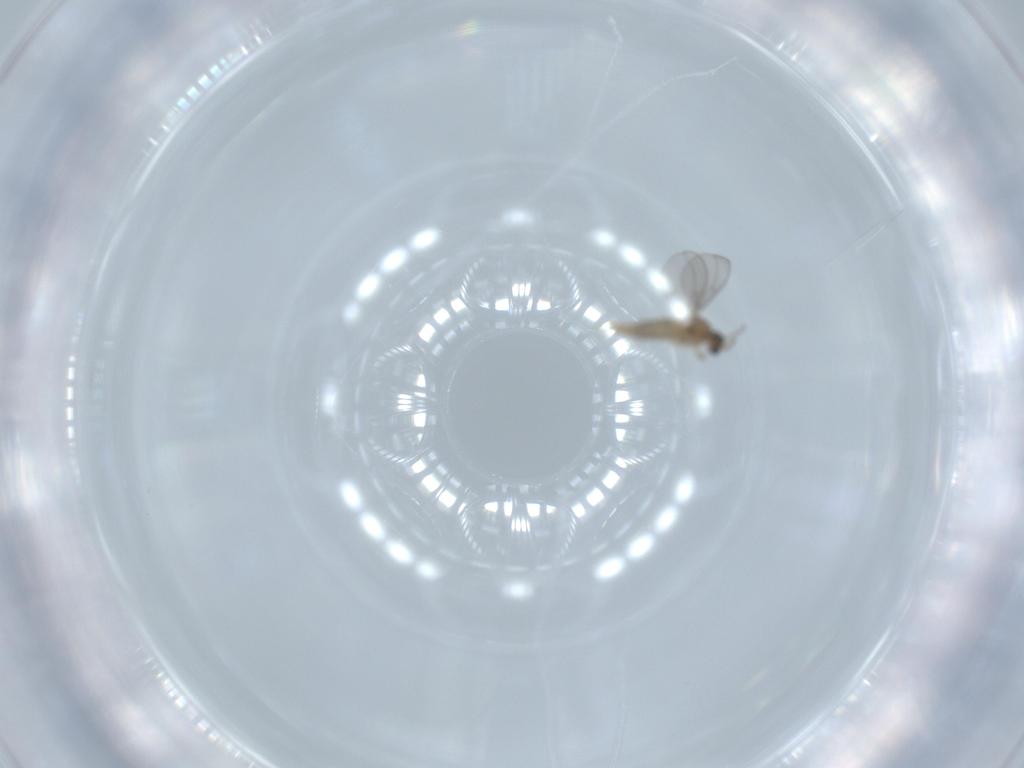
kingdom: Animalia
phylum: Arthropoda
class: Insecta
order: Diptera
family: Cecidomyiidae
